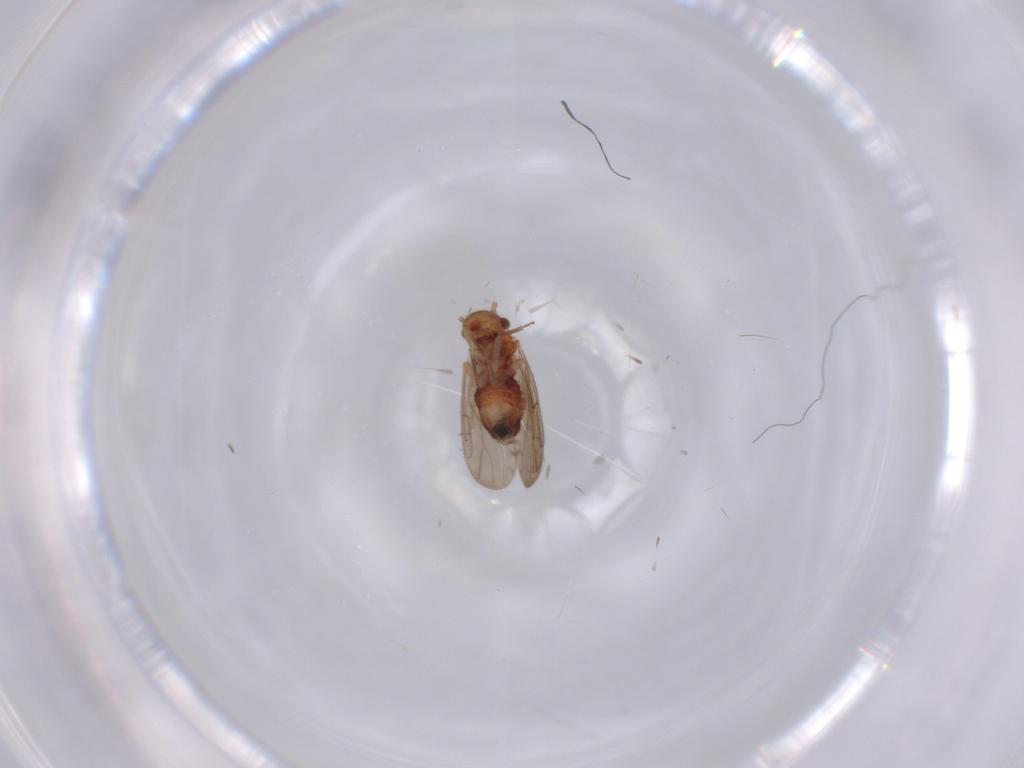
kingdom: Animalia
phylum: Arthropoda
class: Insecta
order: Psocodea
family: Ectopsocidae
